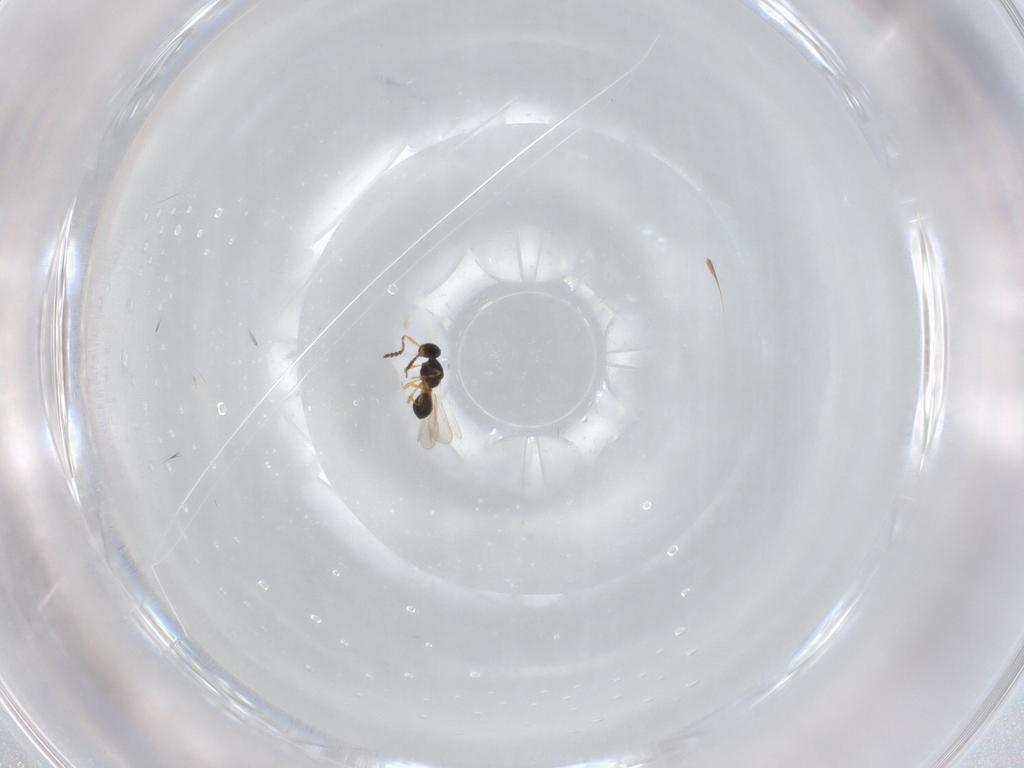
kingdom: Animalia
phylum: Arthropoda
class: Insecta
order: Hymenoptera
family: Platygastridae
